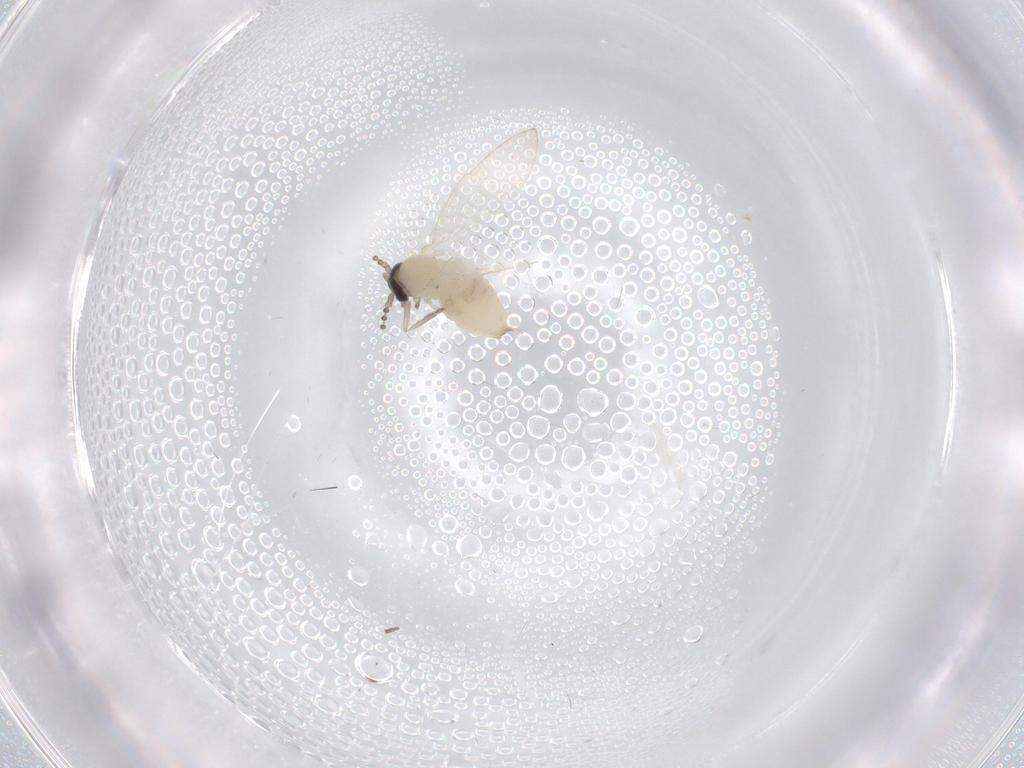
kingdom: Animalia
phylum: Arthropoda
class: Insecta
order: Diptera
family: Psychodidae
